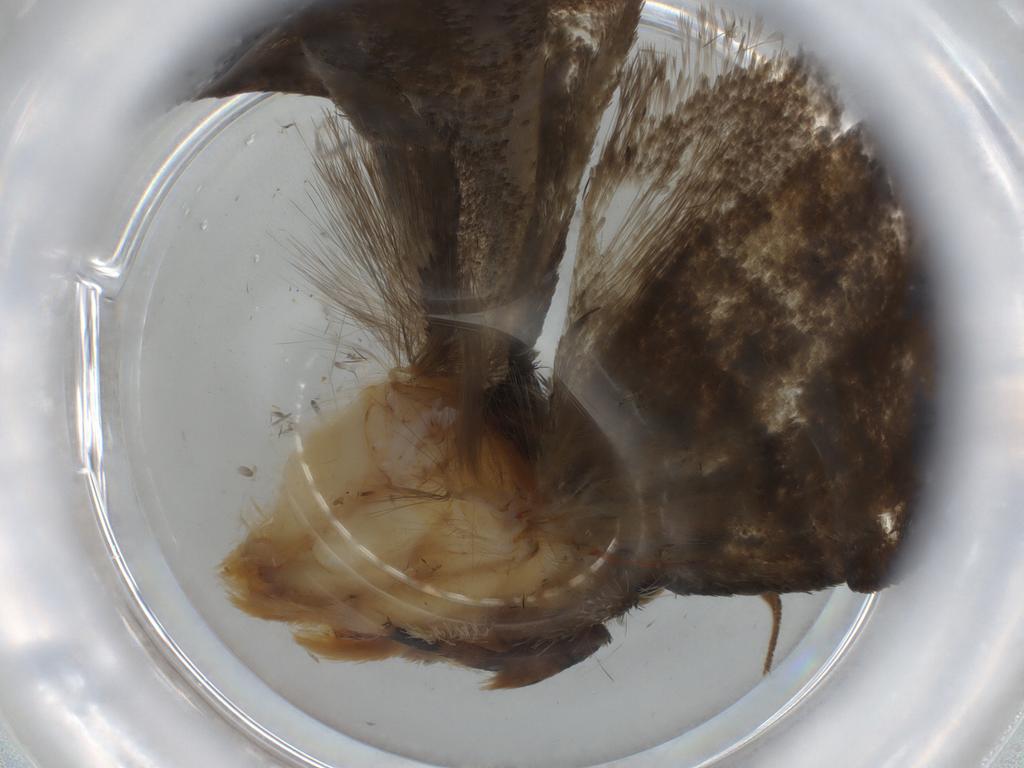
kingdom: Animalia
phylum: Arthropoda
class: Insecta
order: Lepidoptera
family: Tineidae
